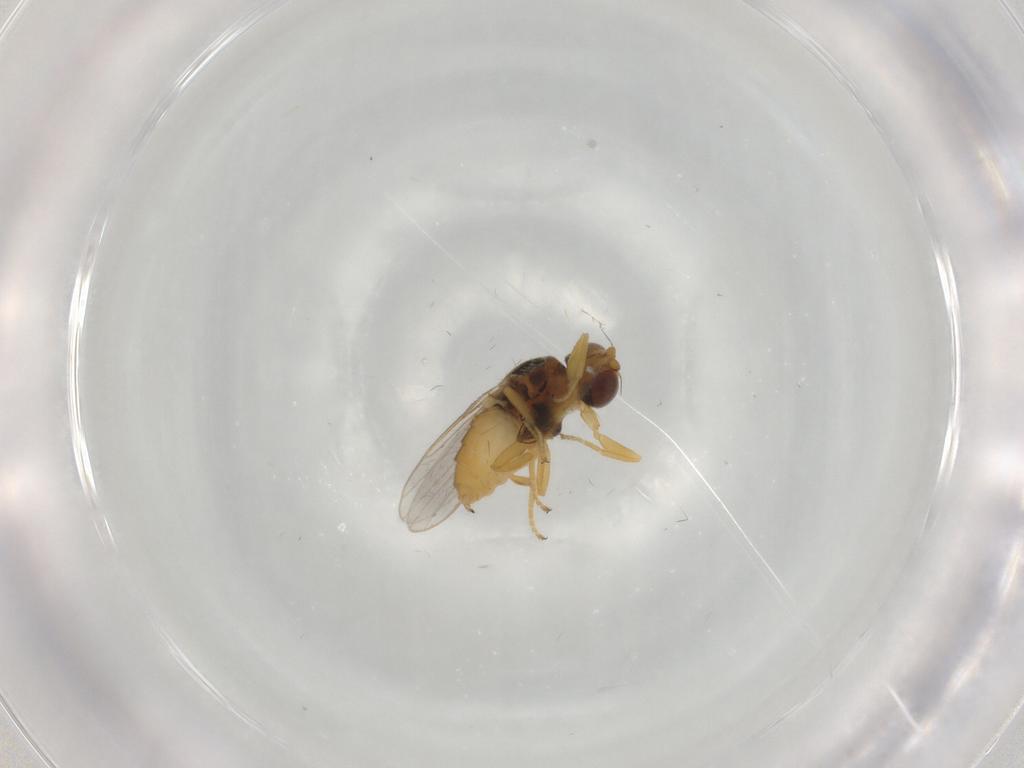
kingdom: Animalia
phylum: Arthropoda
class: Insecta
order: Diptera
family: Chloropidae
